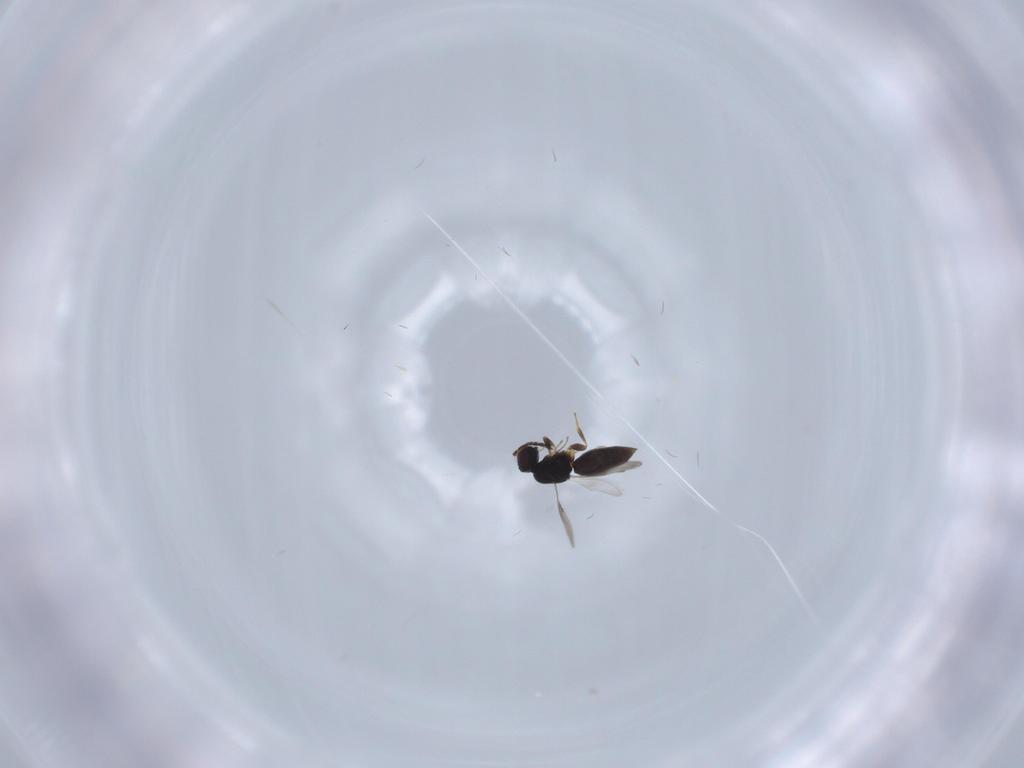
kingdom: Animalia
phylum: Arthropoda
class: Insecta
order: Hymenoptera
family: Ceraphronidae
